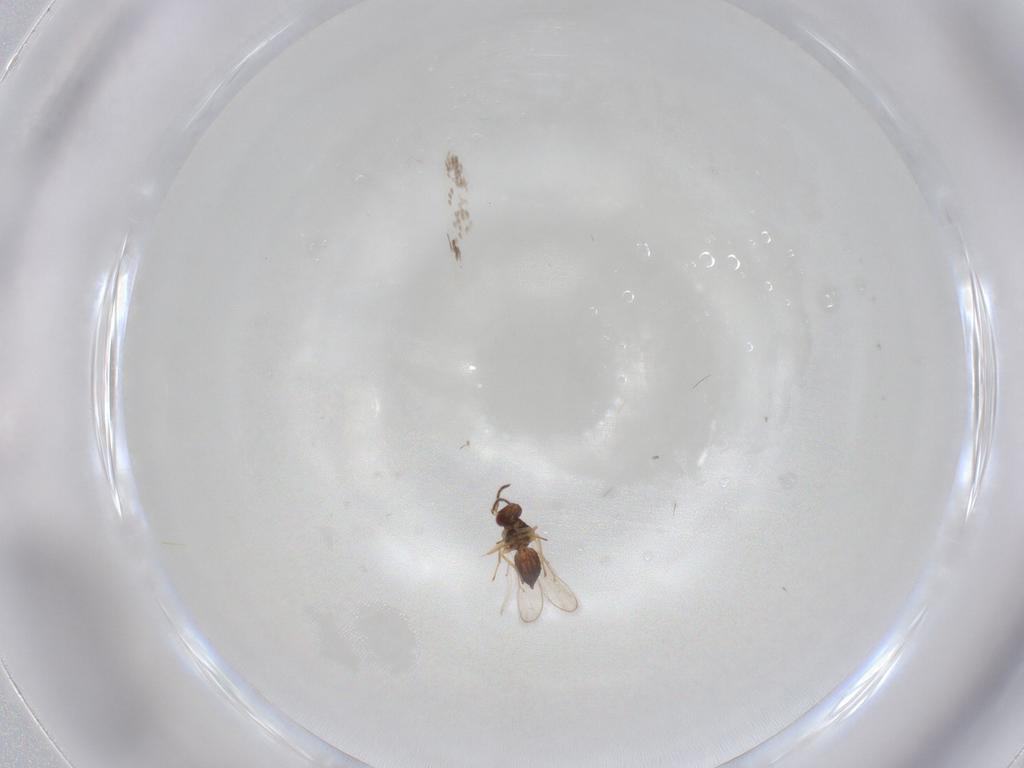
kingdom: Animalia
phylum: Arthropoda
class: Insecta
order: Hymenoptera
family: Eulophidae
